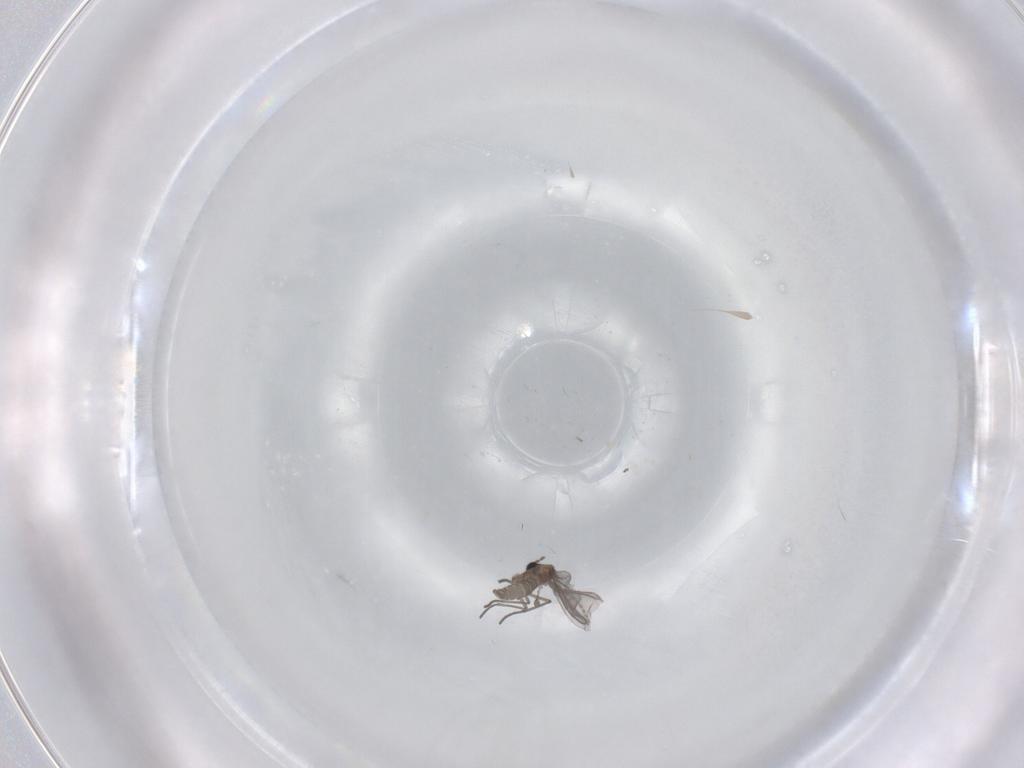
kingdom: Animalia
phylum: Arthropoda
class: Insecta
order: Diptera
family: Sciaridae
